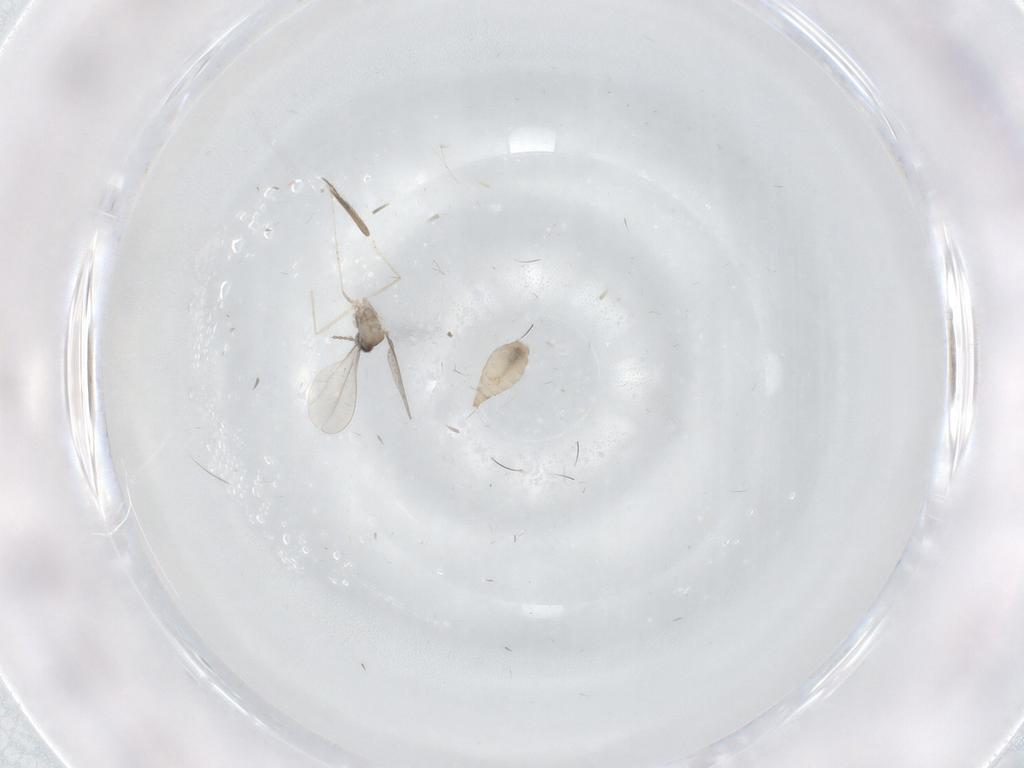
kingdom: Animalia
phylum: Arthropoda
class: Insecta
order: Diptera
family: Ceratopogonidae
